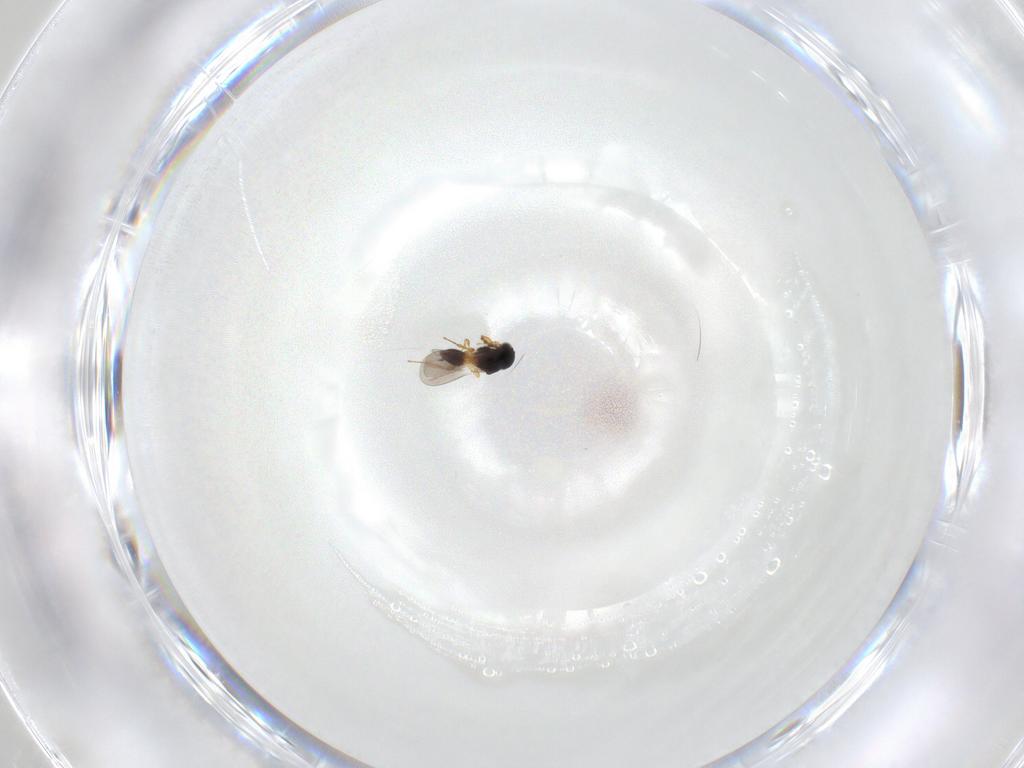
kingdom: Animalia
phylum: Arthropoda
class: Insecta
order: Hymenoptera
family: Platygastridae
